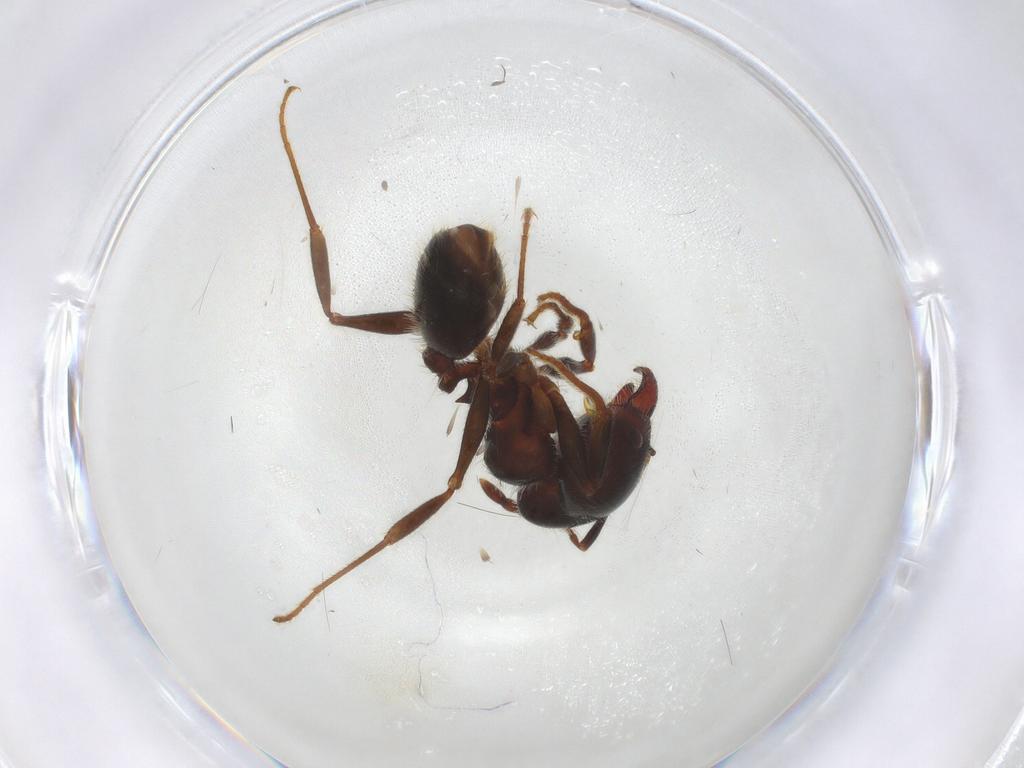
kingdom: Animalia
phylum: Arthropoda
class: Insecta
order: Hymenoptera
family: Formicidae
